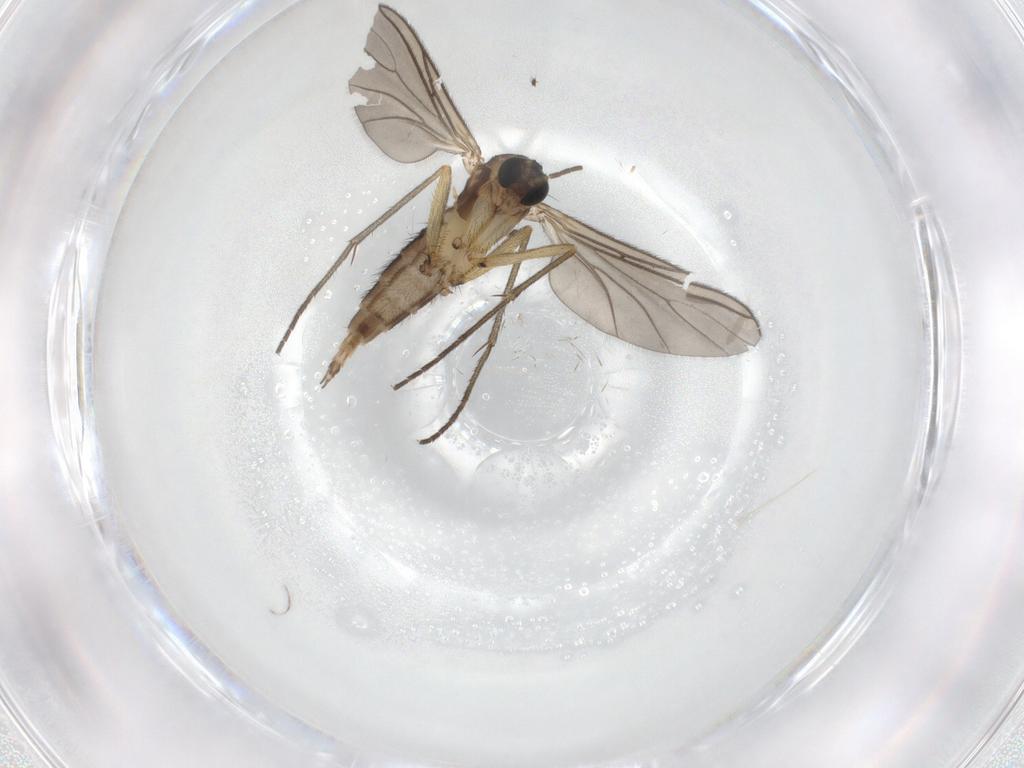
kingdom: Animalia
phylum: Arthropoda
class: Insecta
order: Diptera
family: Sciaridae
